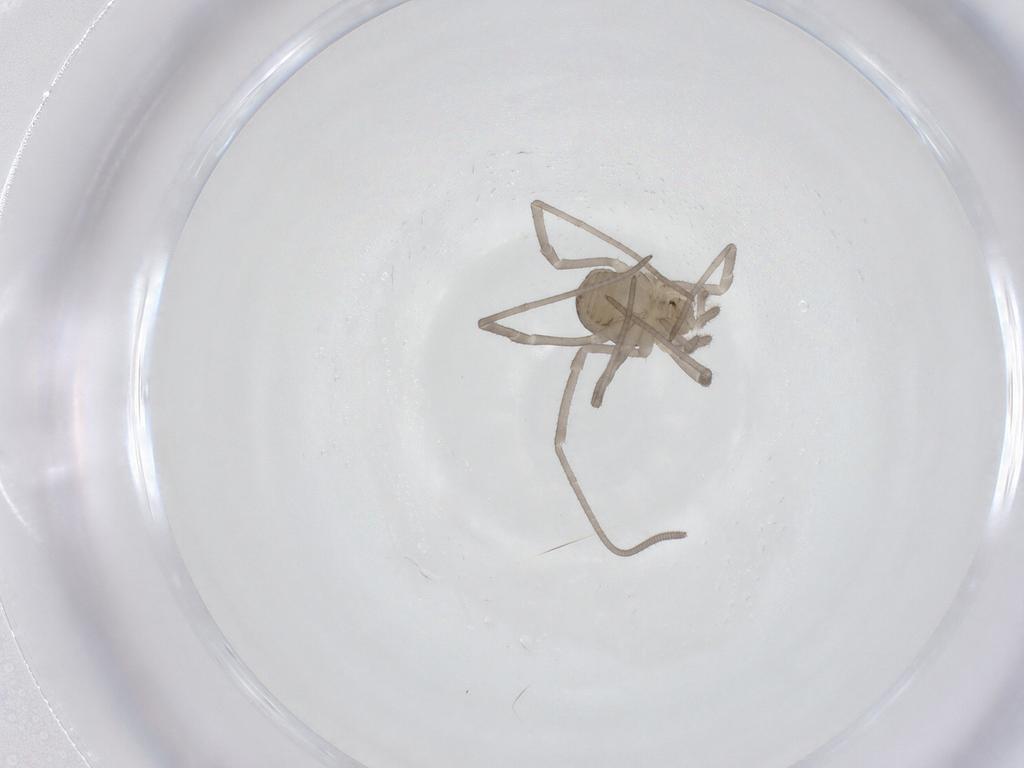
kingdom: Animalia
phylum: Arthropoda
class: Arachnida
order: Opiliones
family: Sclerosomatidae
